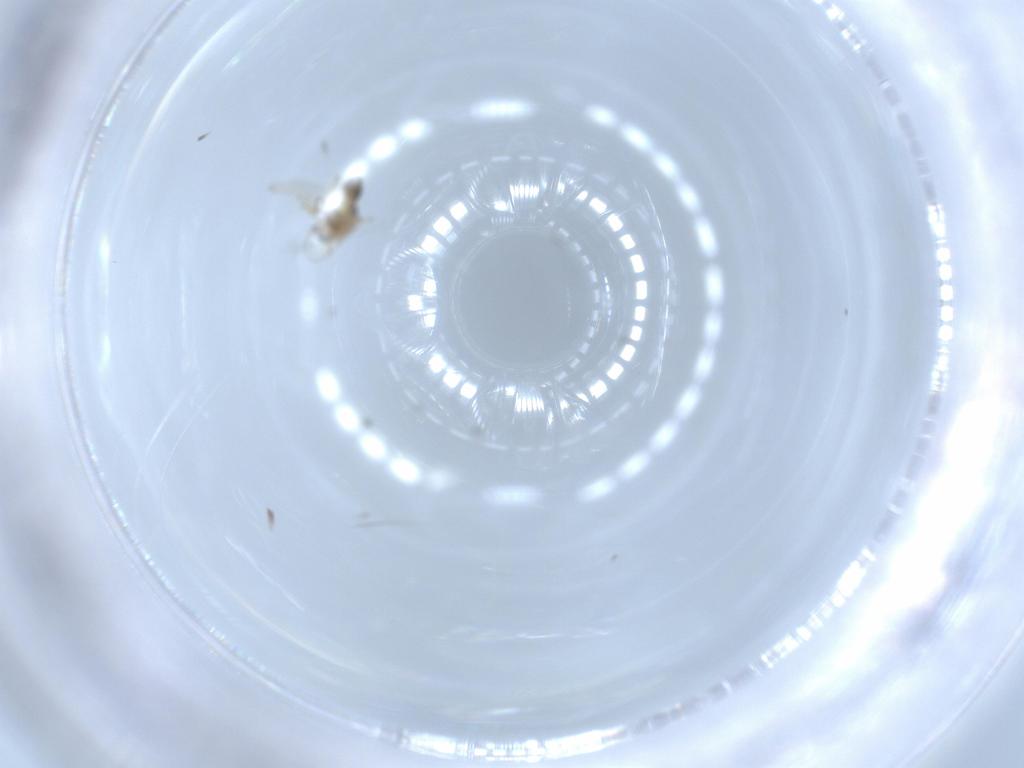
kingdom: Animalia
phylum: Arthropoda
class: Insecta
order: Diptera
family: Chironomidae
